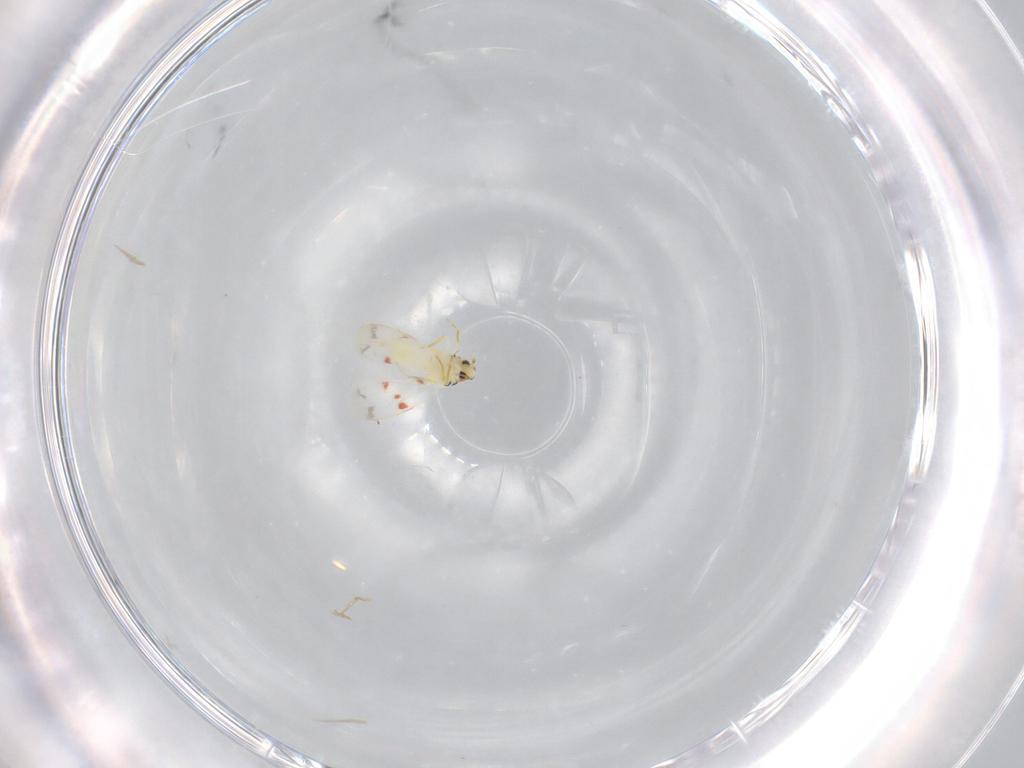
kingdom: Animalia
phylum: Arthropoda
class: Insecta
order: Hemiptera
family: Aleyrodidae
